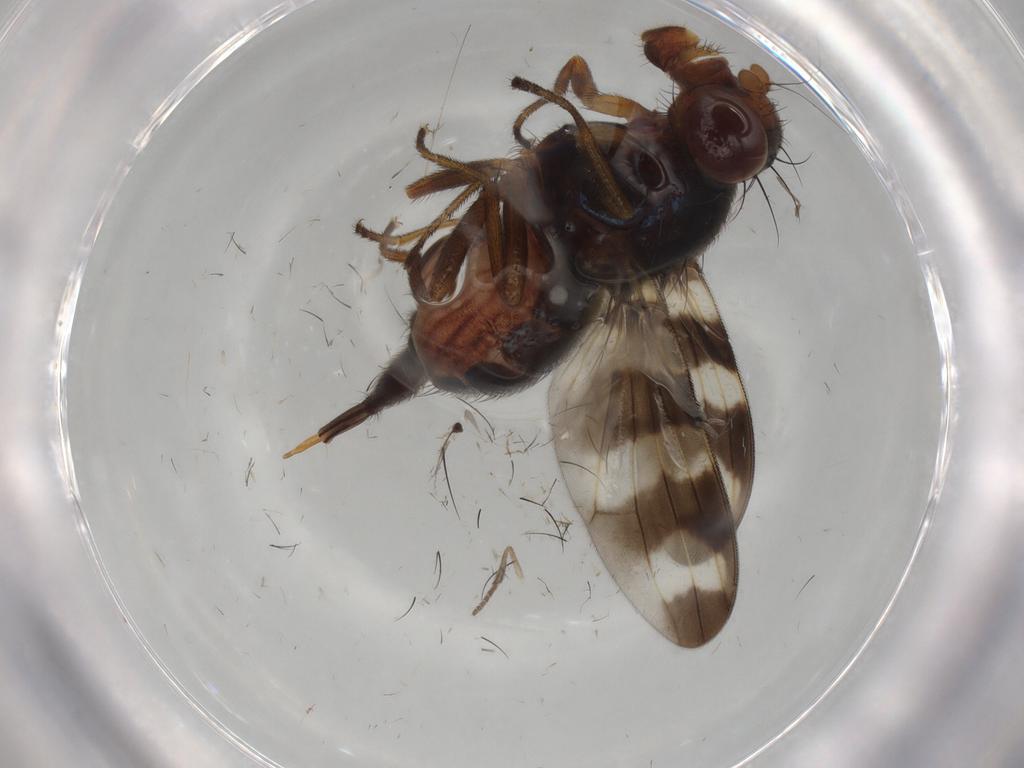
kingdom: Animalia
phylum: Arthropoda
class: Insecta
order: Diptera
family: Ulidiidae
